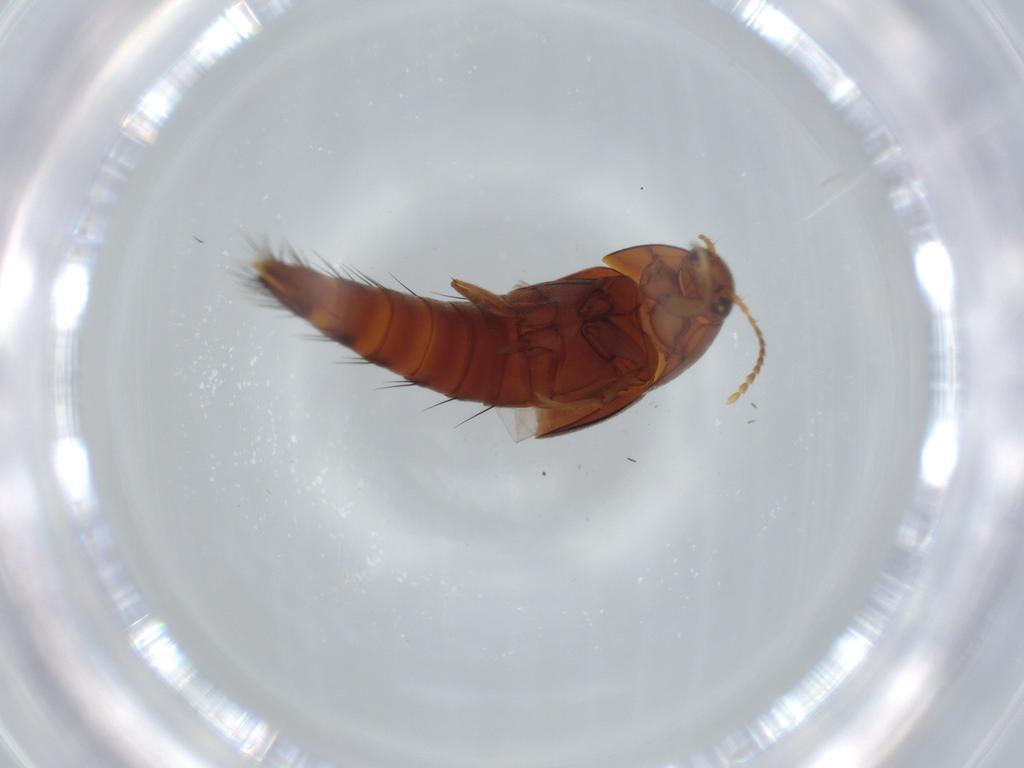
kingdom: Animalia
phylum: Arthropoda
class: Insecta
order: Coleoptera
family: Staphylinidae
